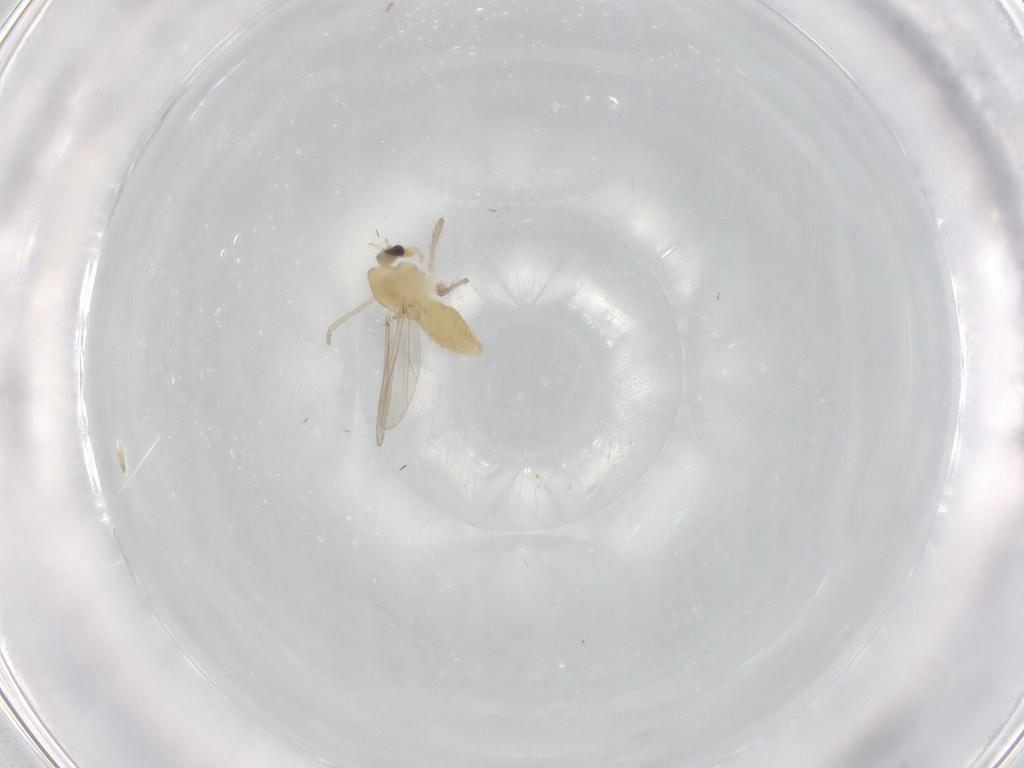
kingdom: Animalia
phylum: Arthropoda
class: Insecta
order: Diptera
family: Chironomidae
